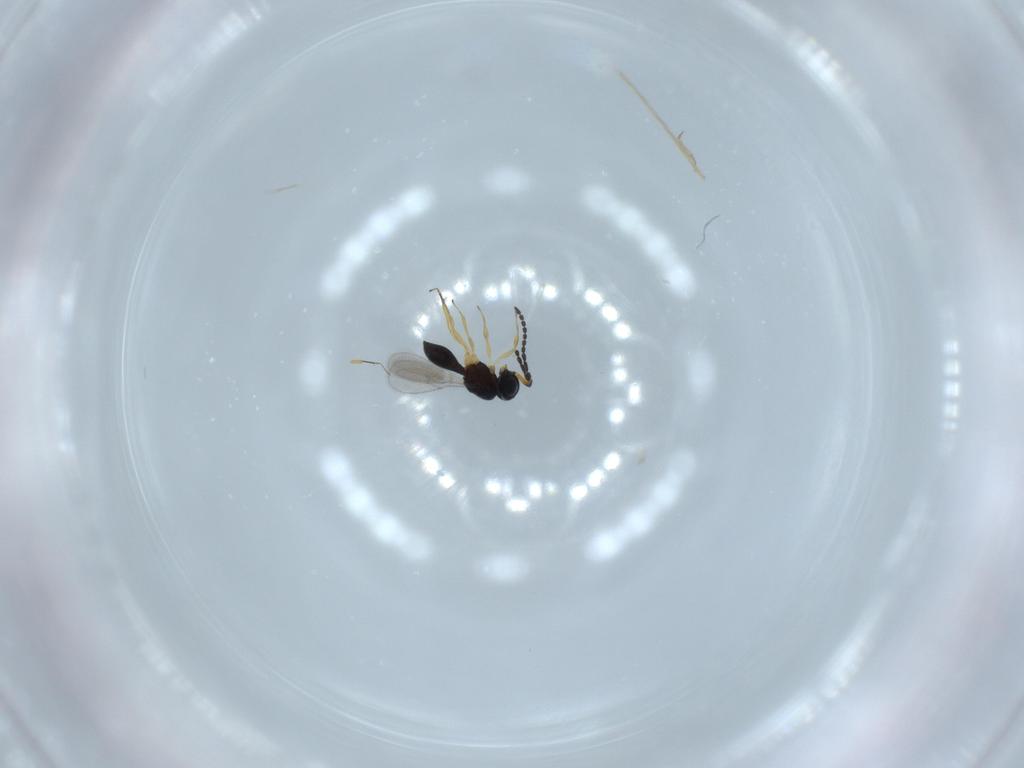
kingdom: Animalia
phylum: Arthropoda
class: Insecta
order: Hymenoptera
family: Scelionidae
